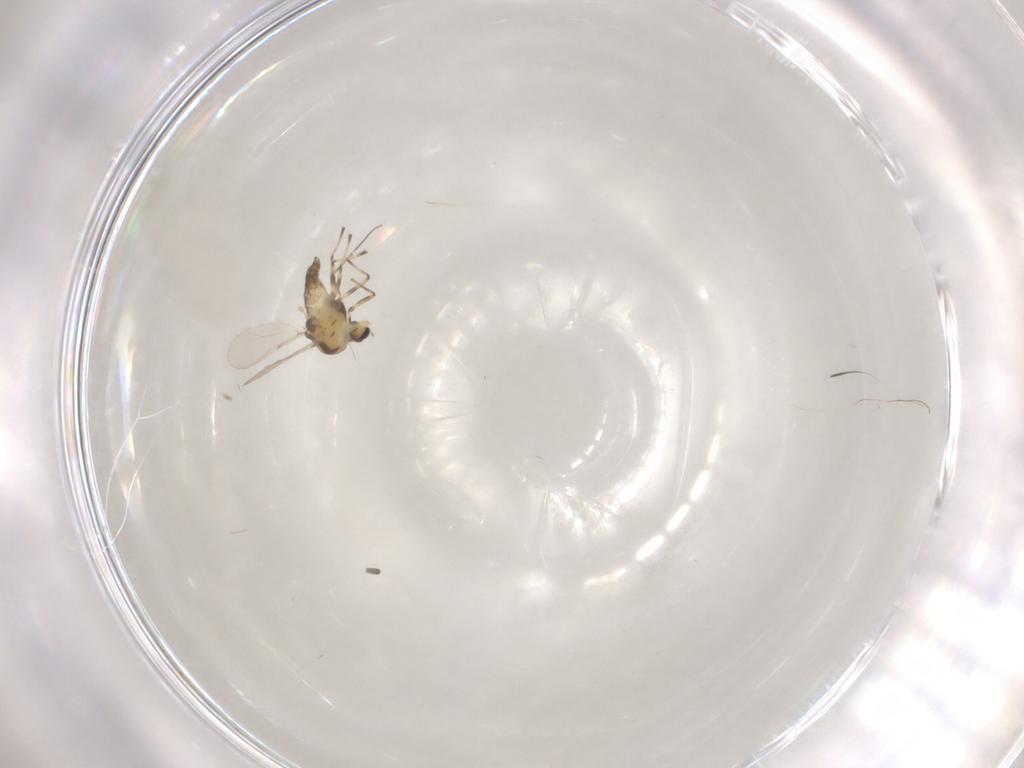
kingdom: Animalia
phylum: Arthropoda
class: Insecta
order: Diptera
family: Chironomidae
